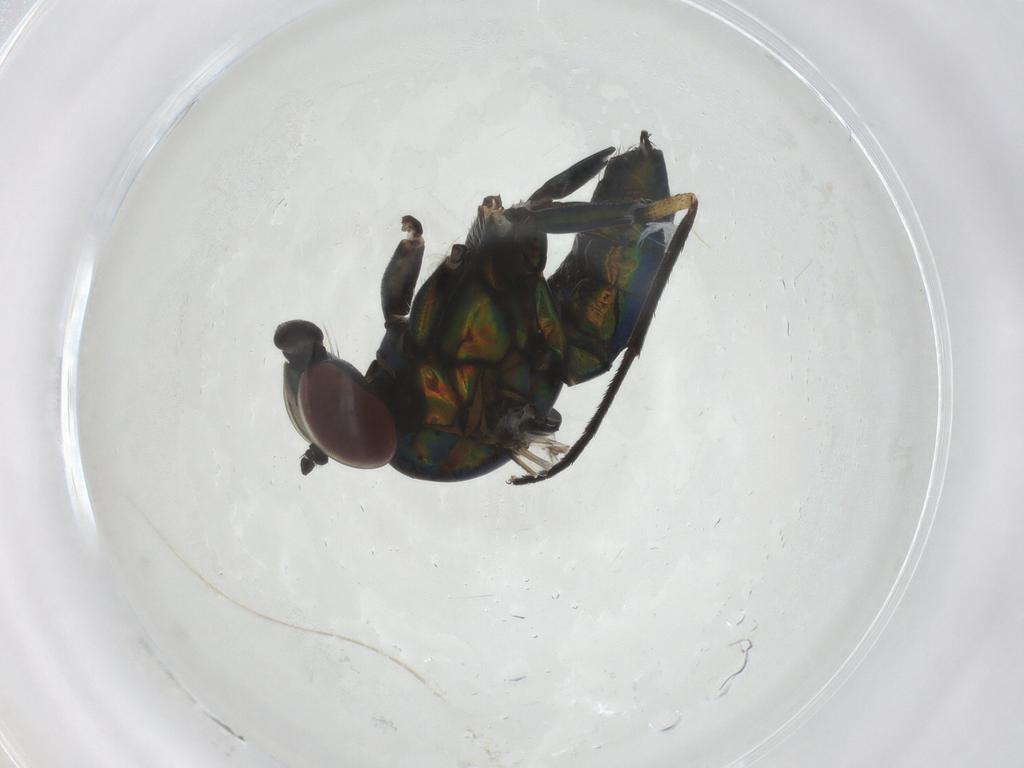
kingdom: Animalia
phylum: Arthropoda
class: Insecta
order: Diptera
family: Dolichopodidae
